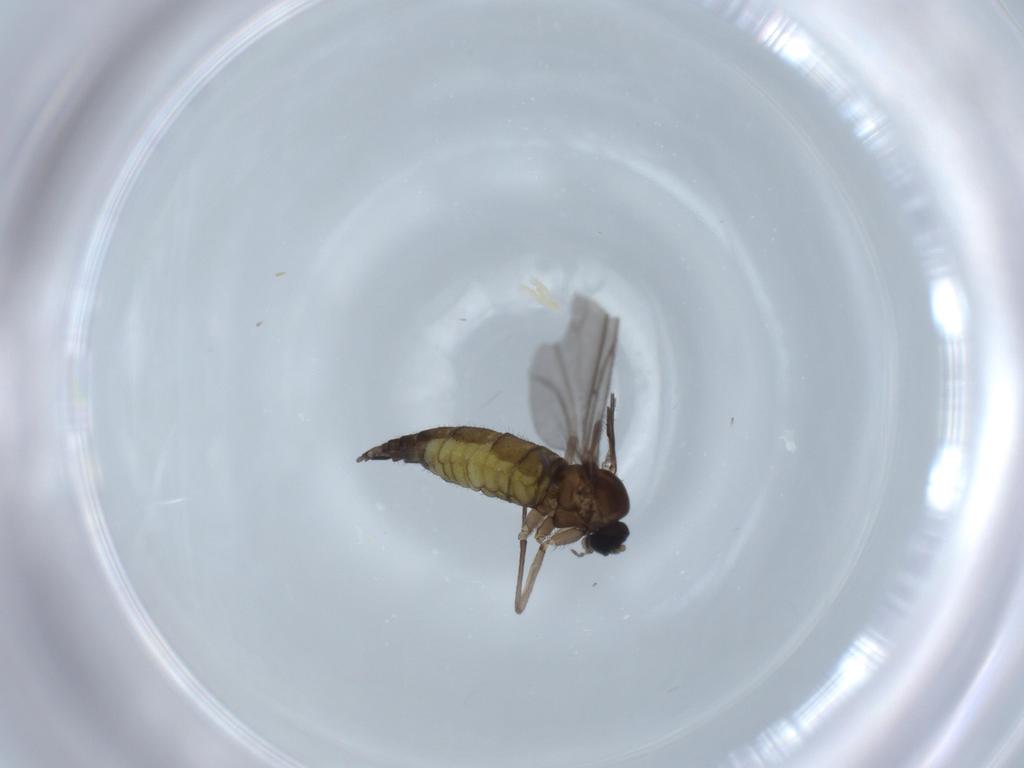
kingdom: Animalia
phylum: Arthropoda
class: Insecta
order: Diptera
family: Sciaridae
